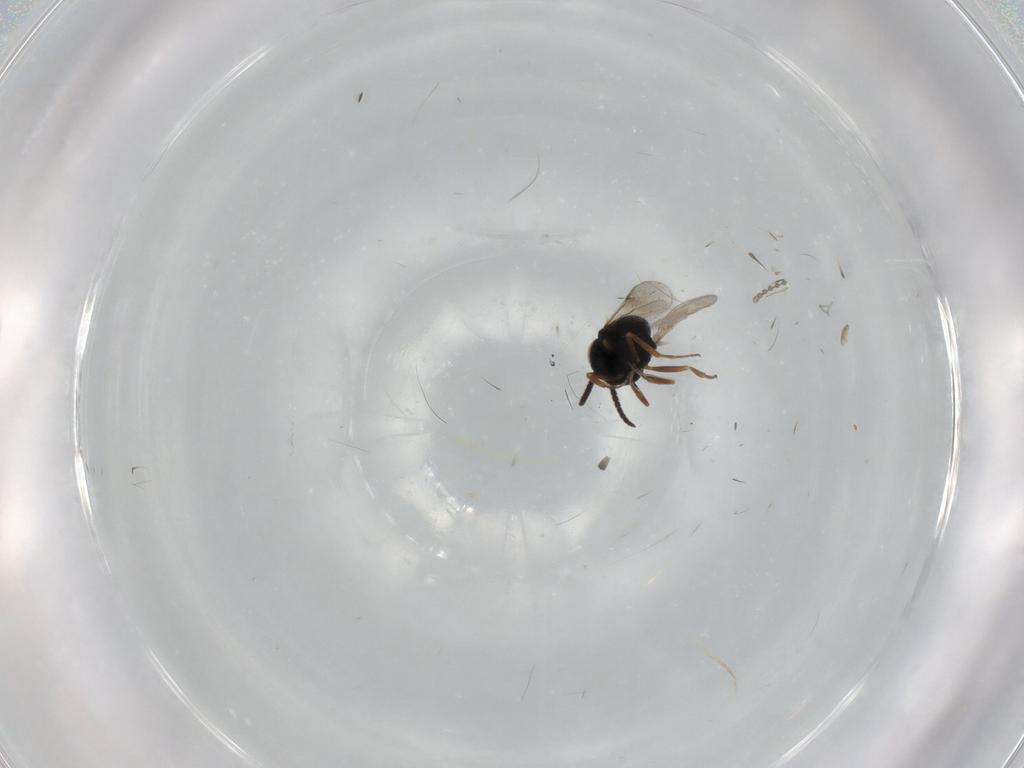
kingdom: Animalia
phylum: Arthropoda
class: Insecta
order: Hymenoptera
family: Scelionidae
